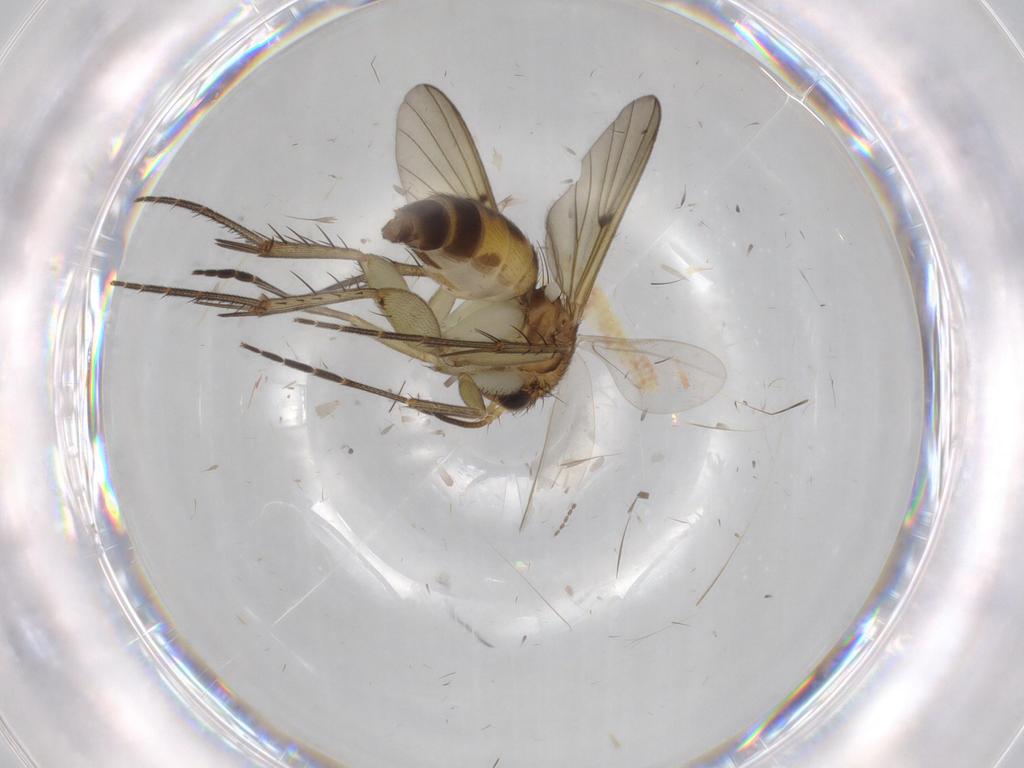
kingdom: Animalia
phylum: Arthropoda
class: Insecta
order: Diptera
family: Mycetophilidae
